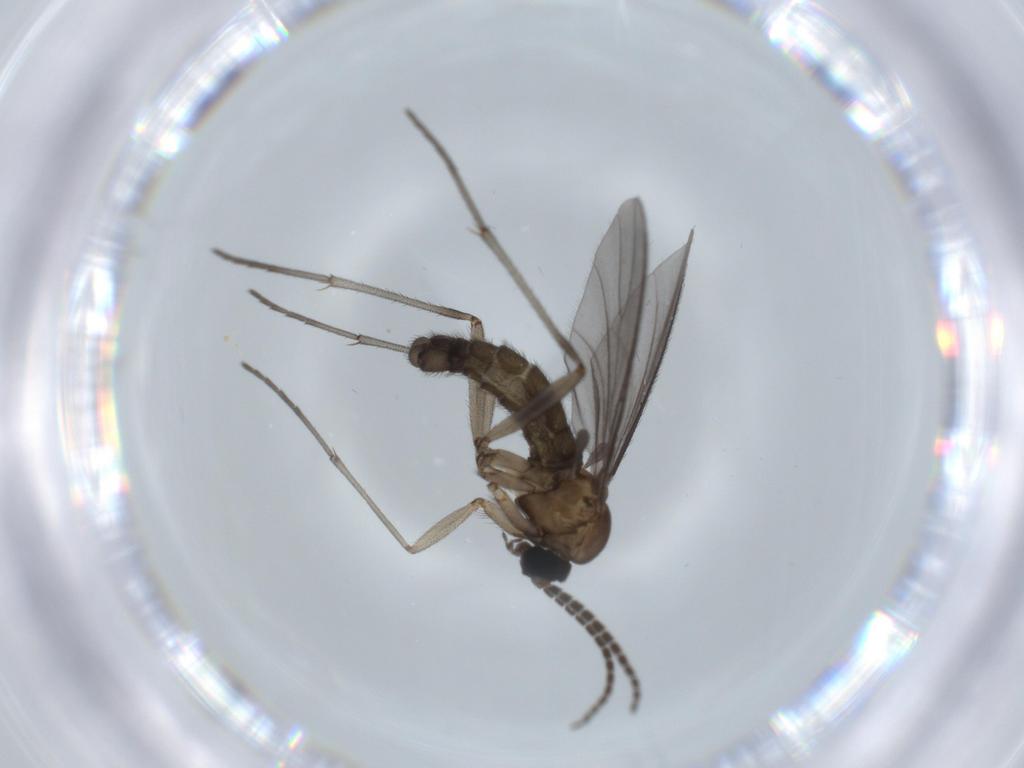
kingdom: Animalia
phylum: Arthropoda
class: Insecta
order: Diptera
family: Sciaridae
